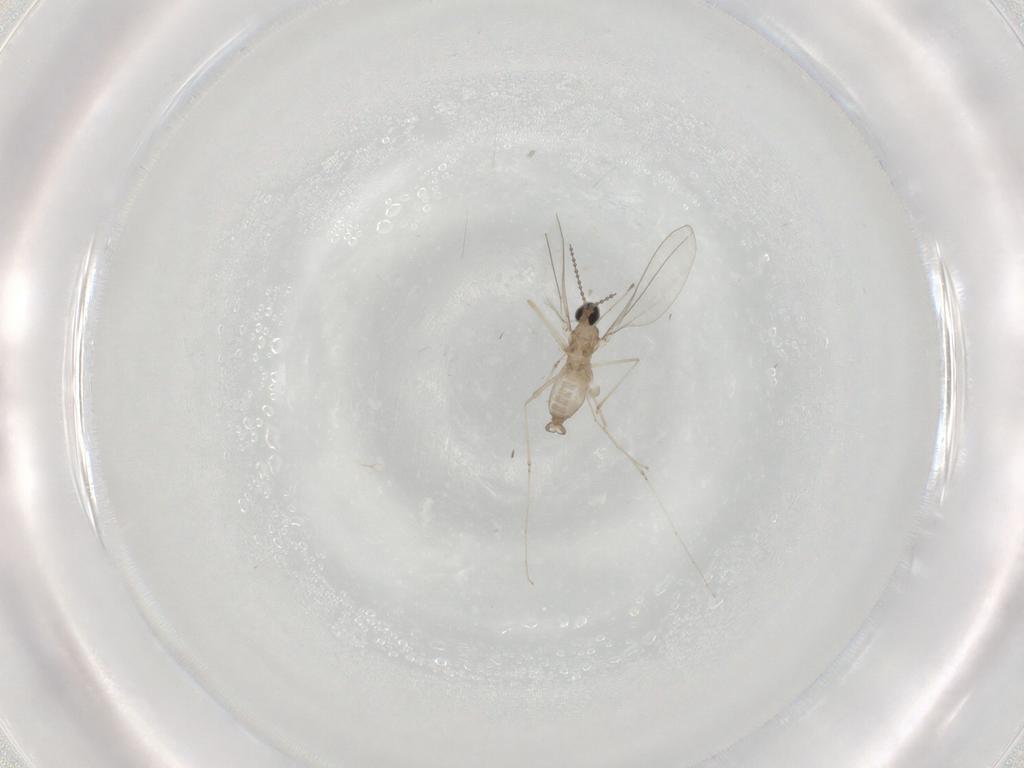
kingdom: Animalia
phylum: Arthropoda
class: Insecta
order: Diptera
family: Cecidomyiidae
